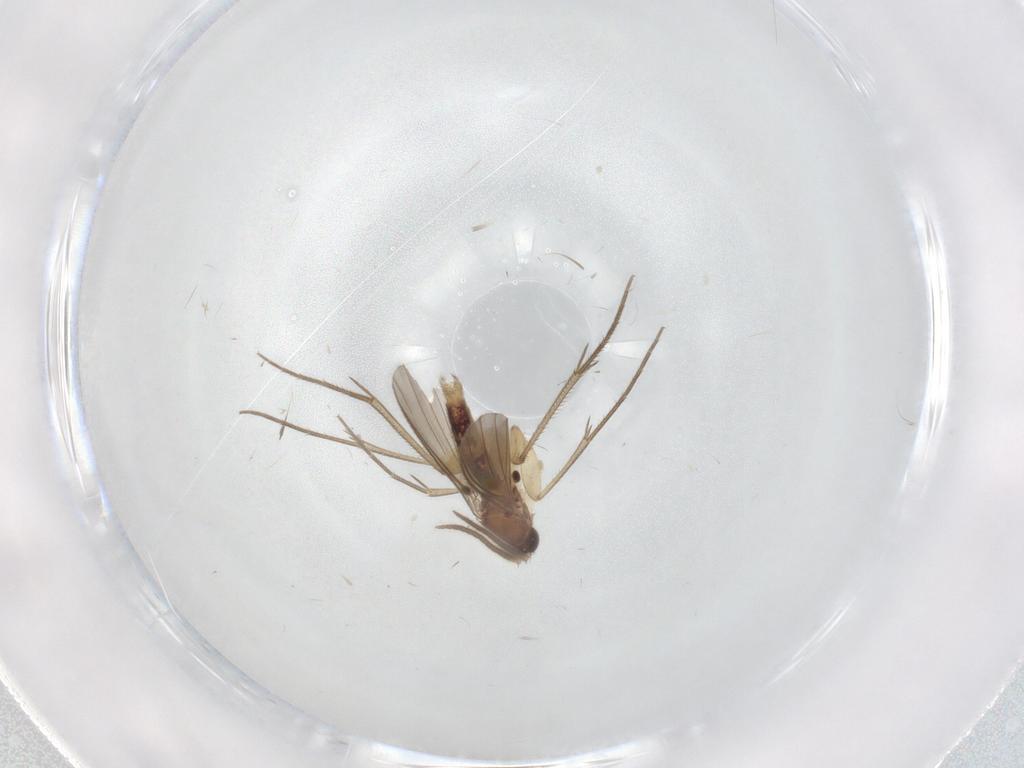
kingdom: Animalia
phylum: Arthropoda
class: Insecta
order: Diptera
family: Mycetophilidae
